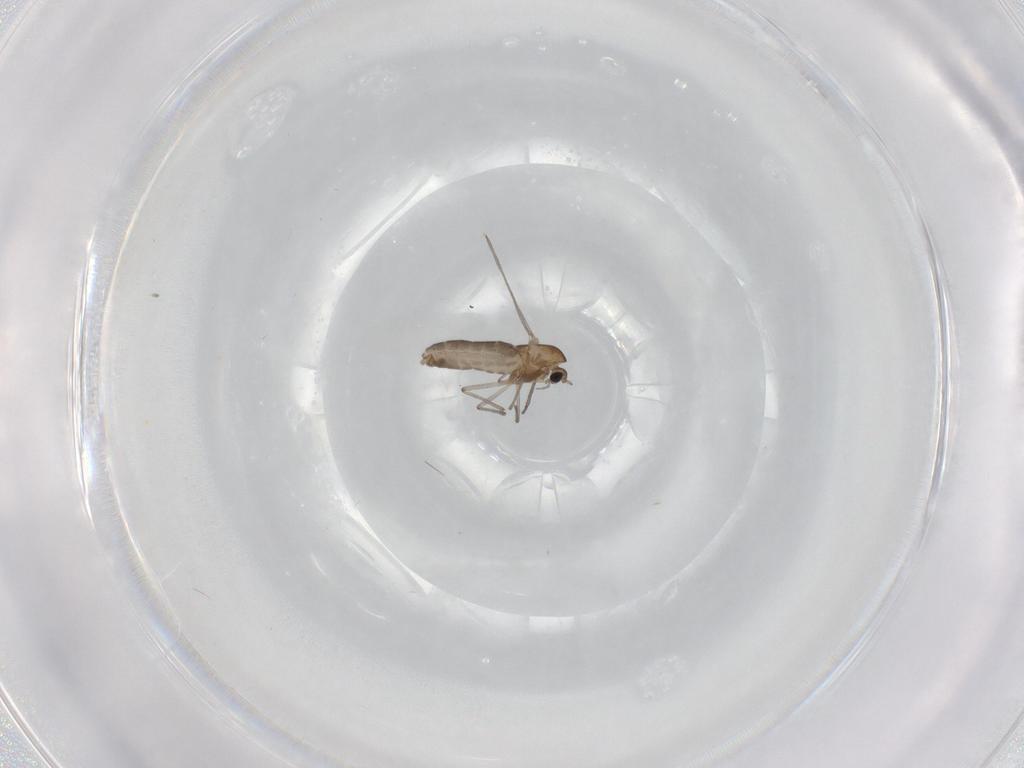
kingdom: Animalia
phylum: Arthropoda
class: Insecta
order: Diptera
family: Chironomidae
